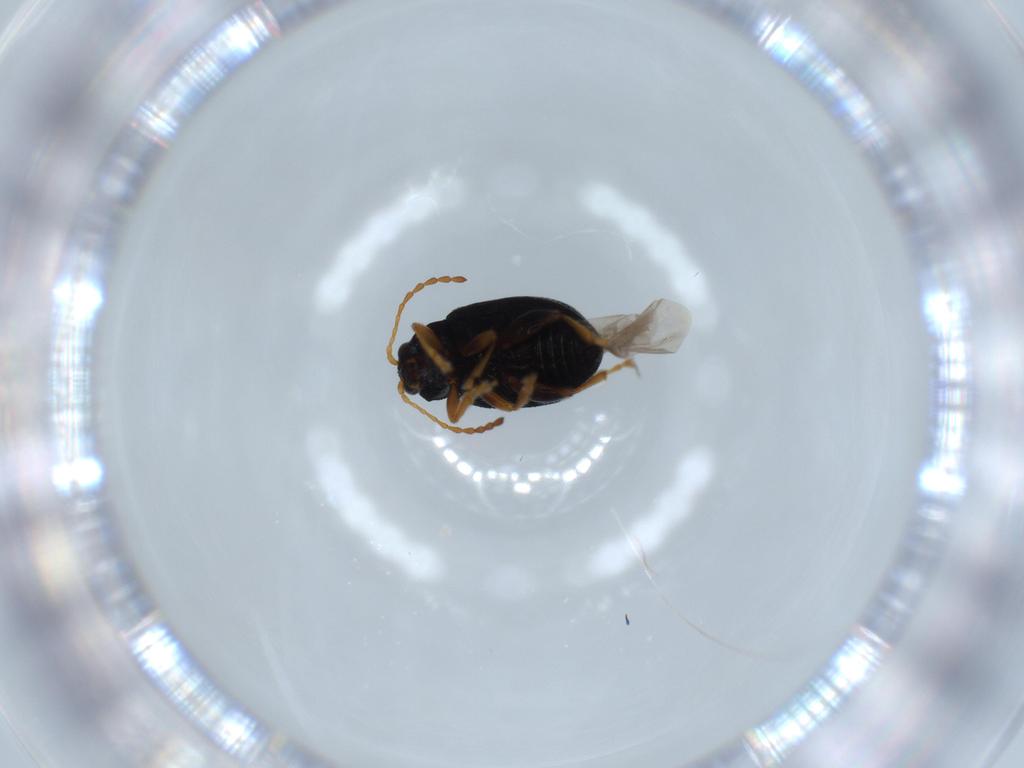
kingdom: Animalia
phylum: Arthropoda
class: Insecta
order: Coleoptera
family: Chrysomelidae
